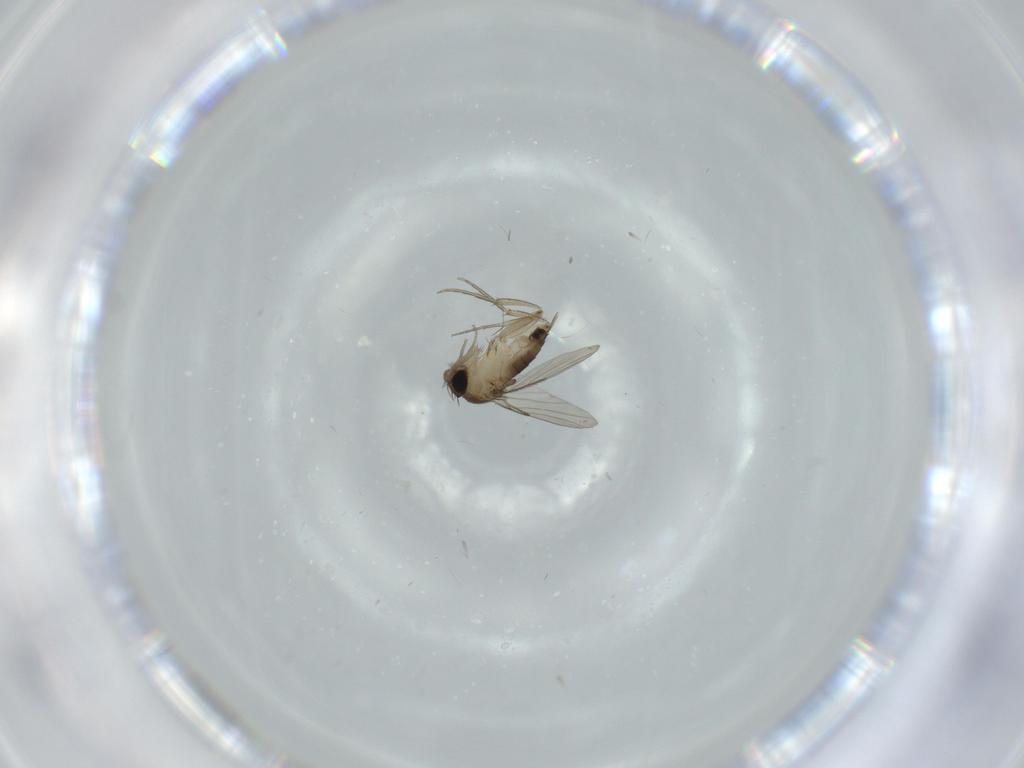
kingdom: Animalia
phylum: Arthropoda
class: Insecta
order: Diptera
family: Phoridae
